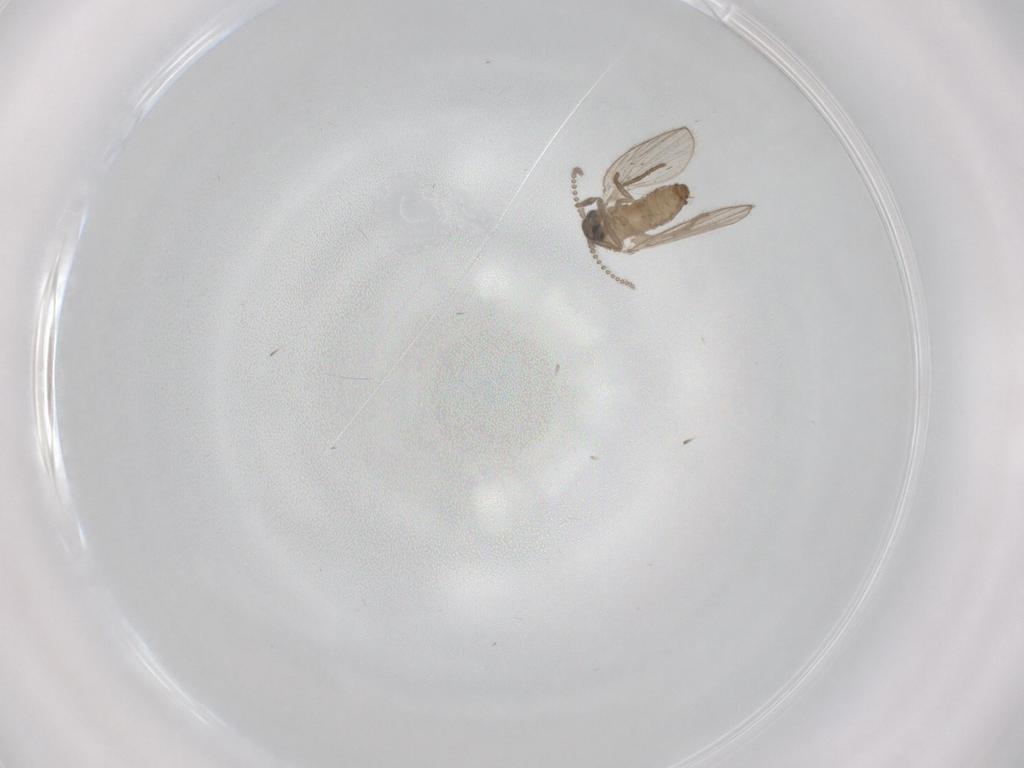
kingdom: Animalia
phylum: Arthropoda
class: Insecta
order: Diptera
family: Psychodidae
